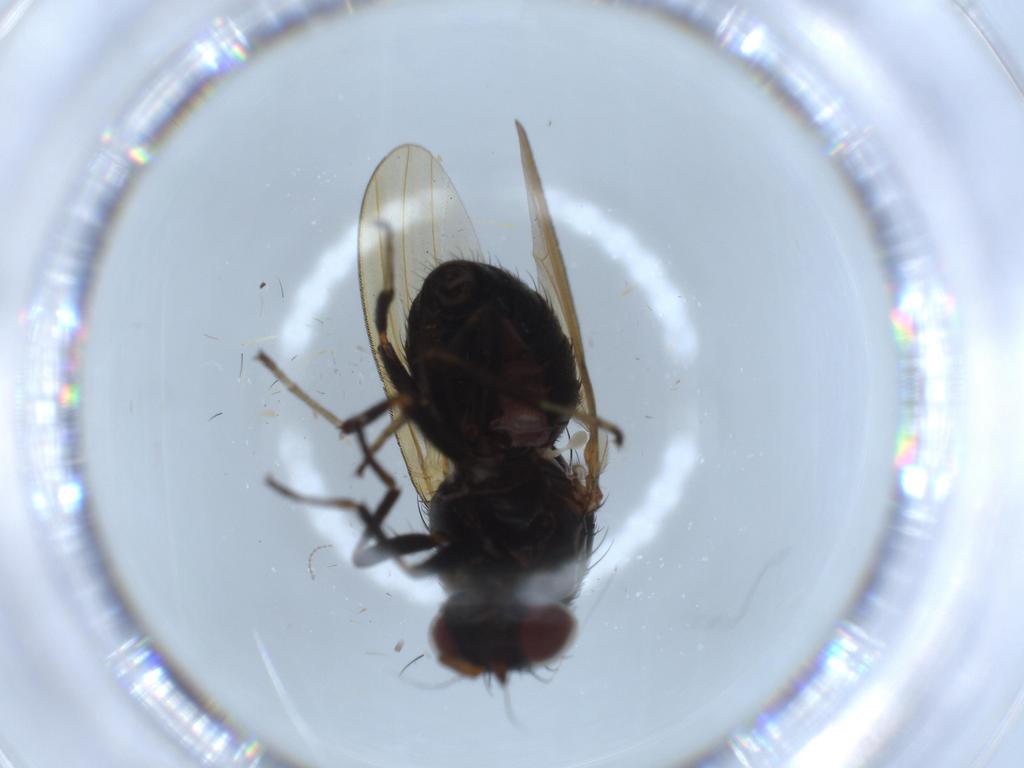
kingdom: Animalia
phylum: Arthropoda
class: Insecta
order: Diptera
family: Lauxaniidae
